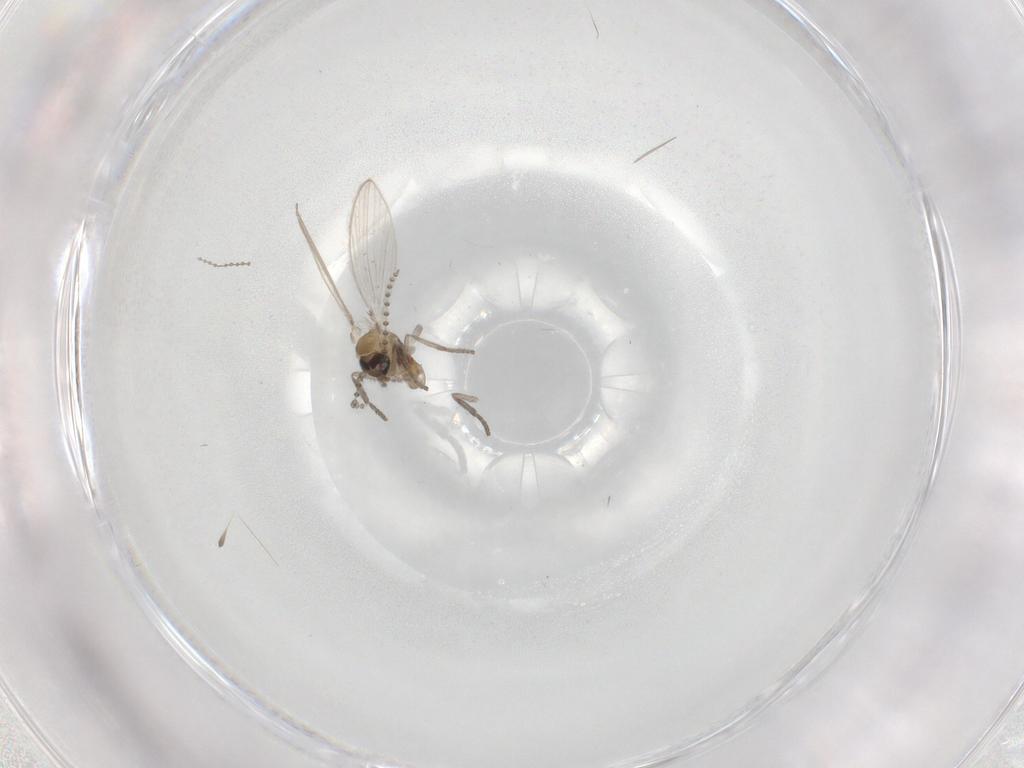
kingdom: Animalia
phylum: Arthropoda
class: Insecta
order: Diptera
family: Psychodidae
